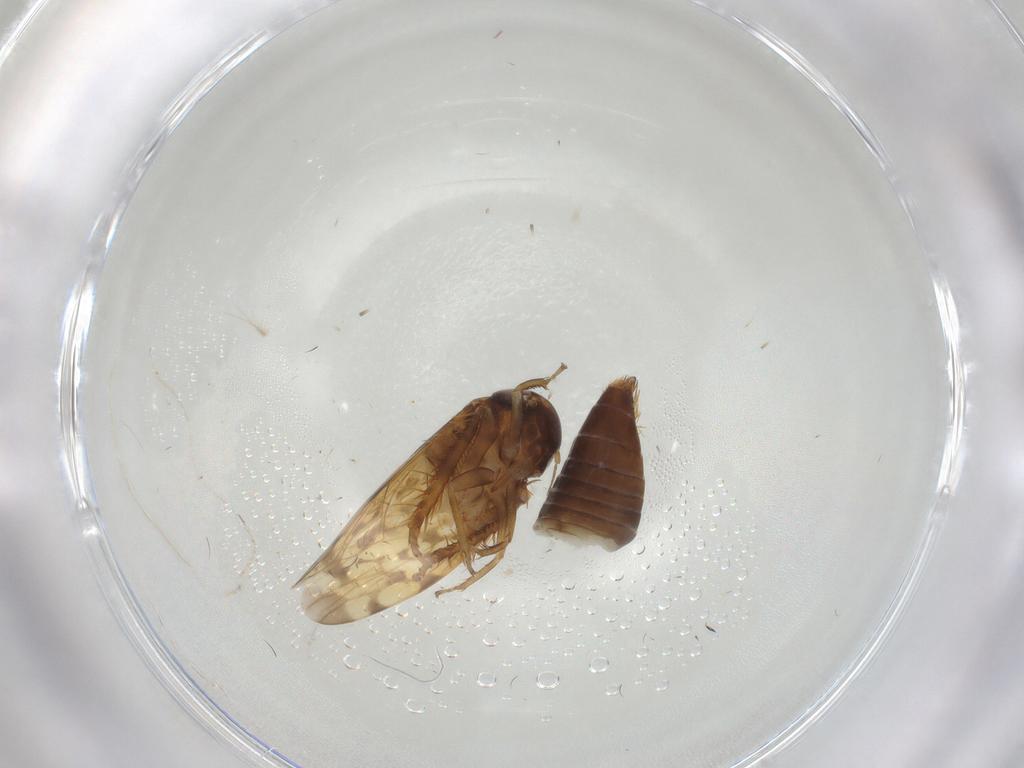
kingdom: Animalia
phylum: Arthropoda
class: Insecta
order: Hemiptera
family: Cicadellidae
